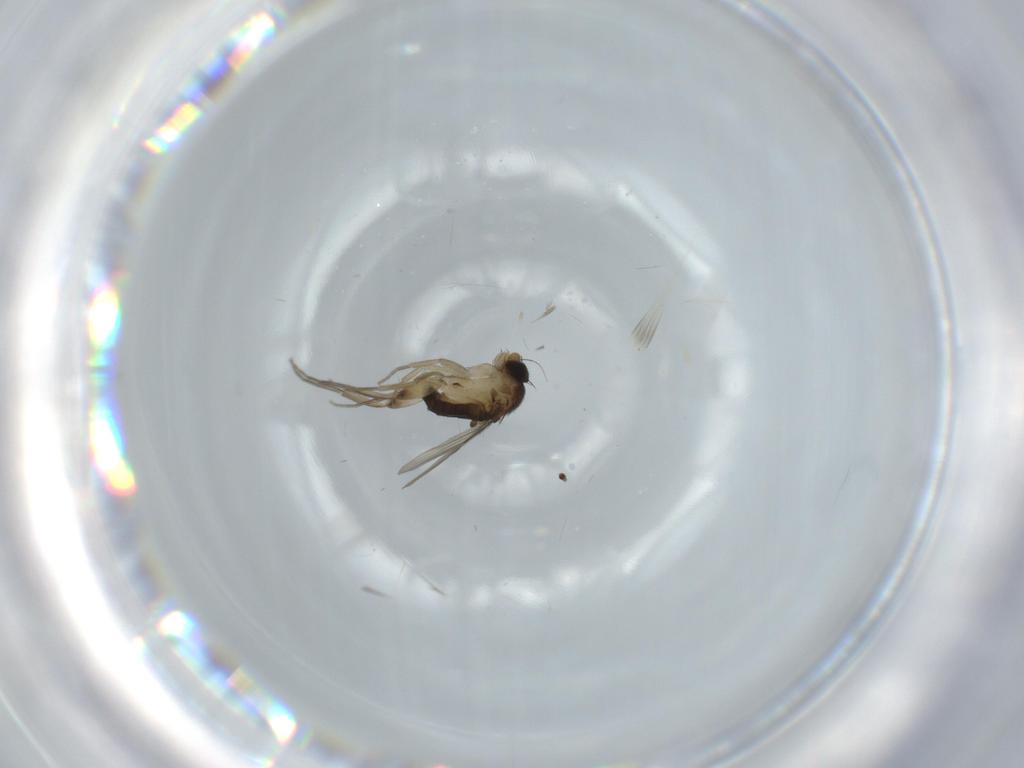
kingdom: Animalia
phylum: Arthropoda
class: Insecta
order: Diptera
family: Phoridae
